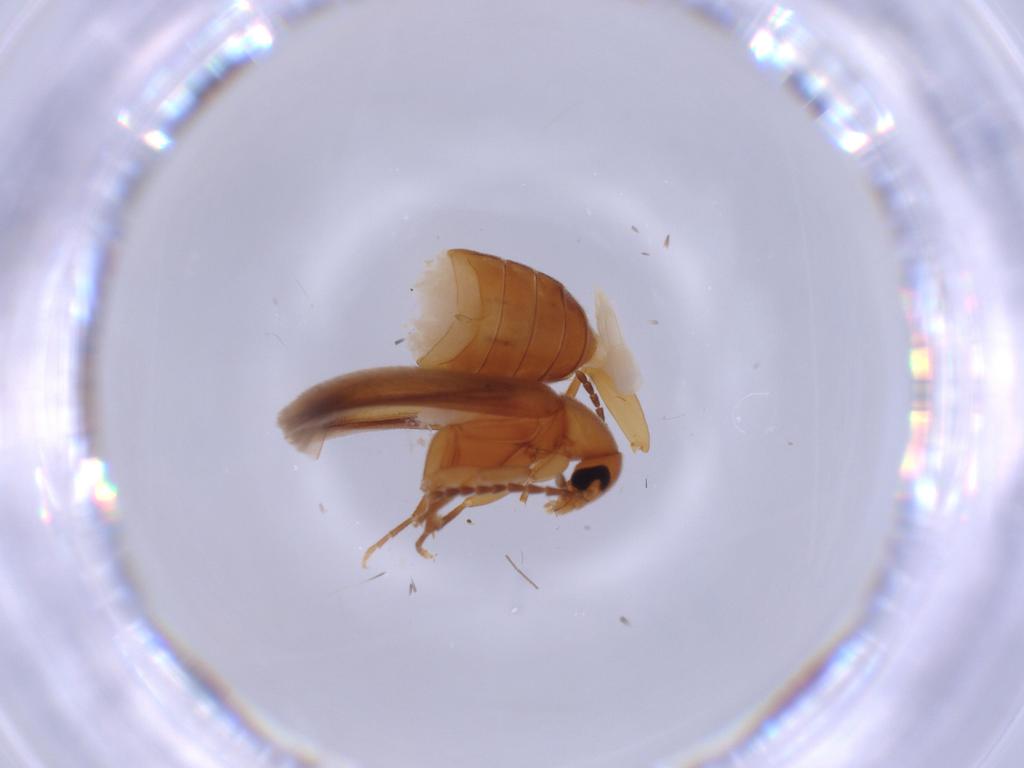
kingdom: Animalia
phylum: Arthropoda
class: Insecta
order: Coleoptera
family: Scraptiidae
